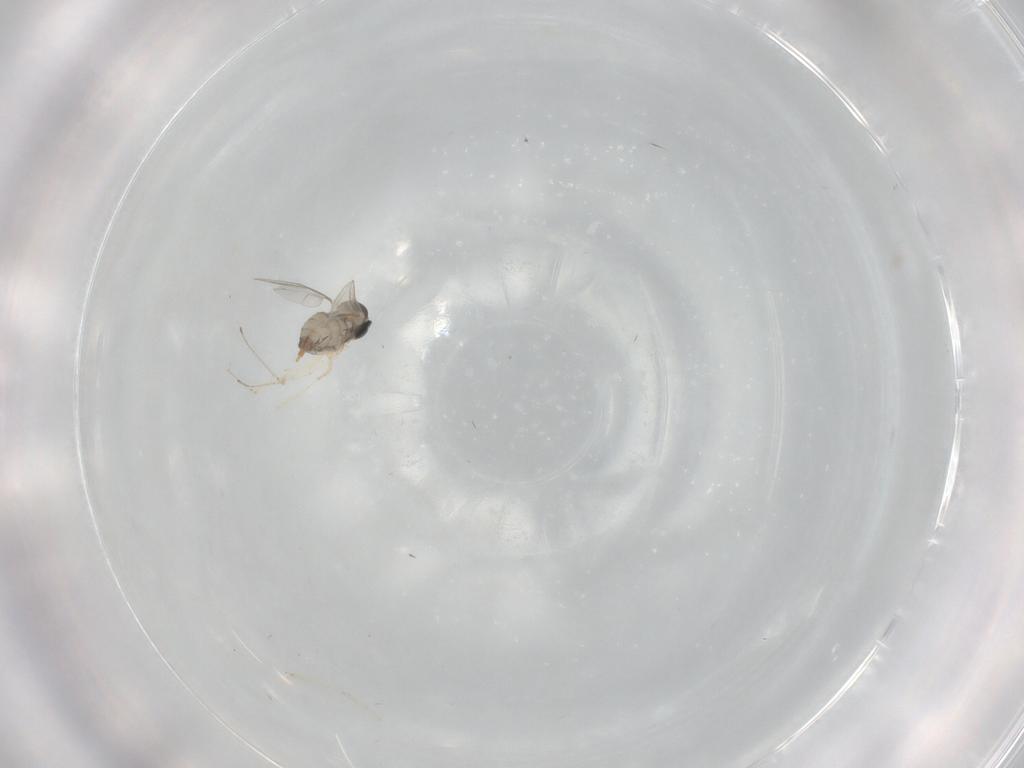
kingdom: Animalia
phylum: Arthropoda
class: Insecta
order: Diptera
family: Cecidomyiidae
